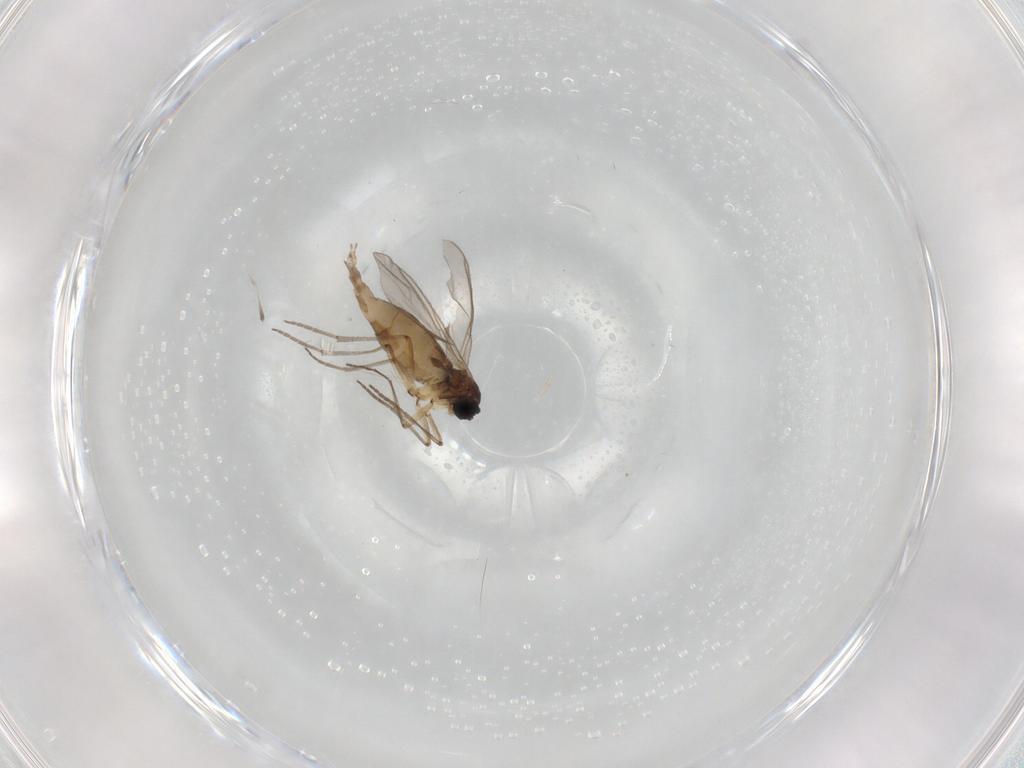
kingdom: Animalia
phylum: Arthropoda
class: Insecta
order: Diptera
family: Sciaridae
